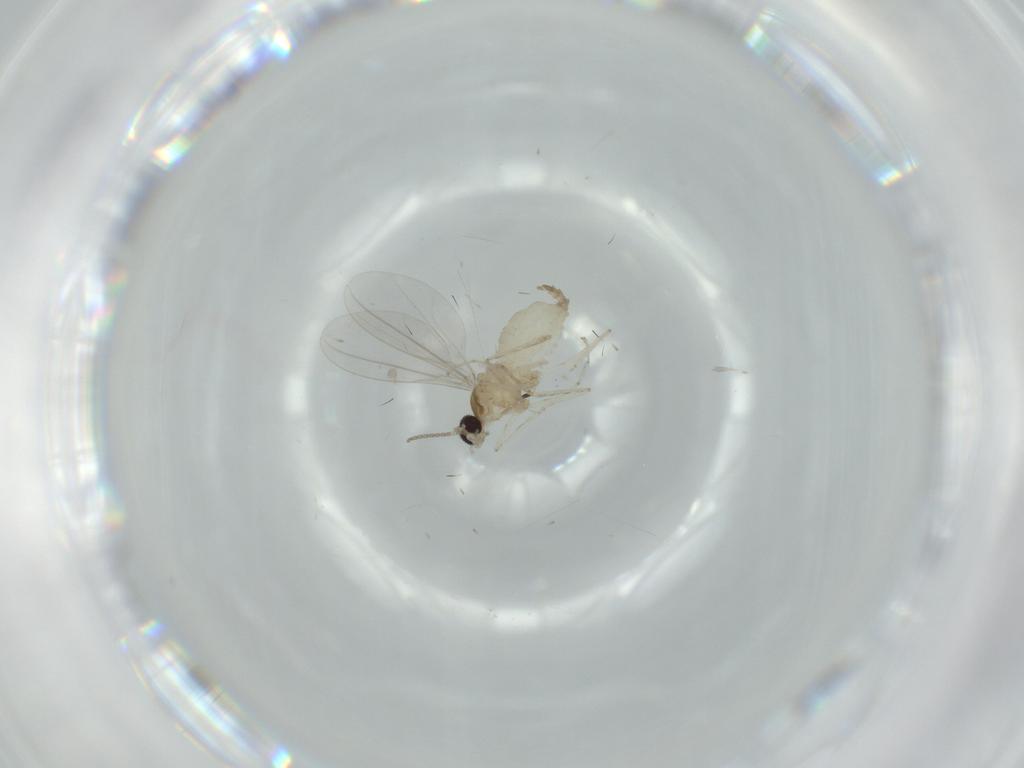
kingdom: Animalia
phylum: Arthropoda
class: Insecta
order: Diptera
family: Cecidomyiidae
